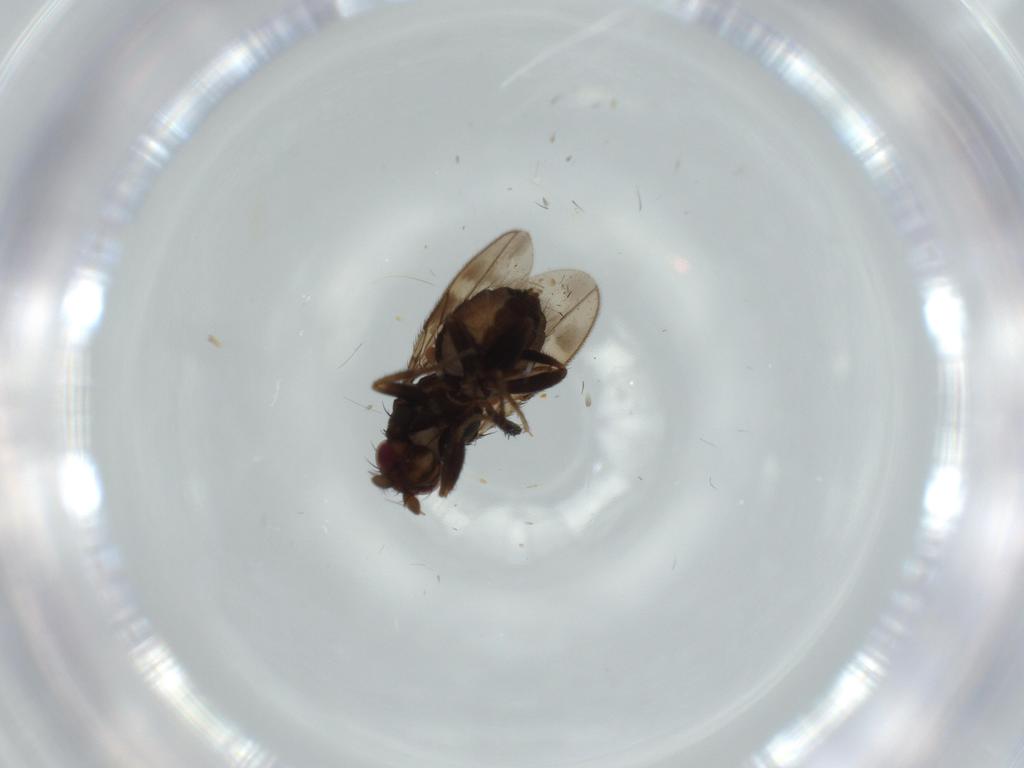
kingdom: Animalia
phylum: Arthropoda
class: Insecta
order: Diptera
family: Sphaeroceridae
